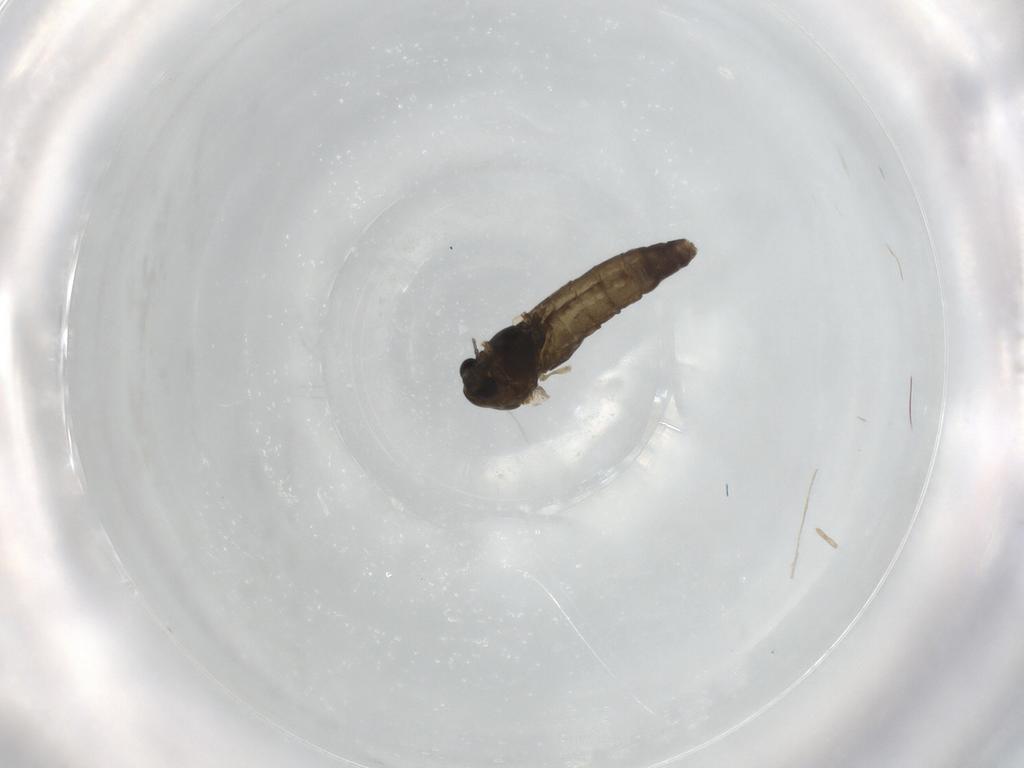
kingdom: Animalia
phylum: Arthropoda
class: Insecta
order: Diptera
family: Chironomidae
